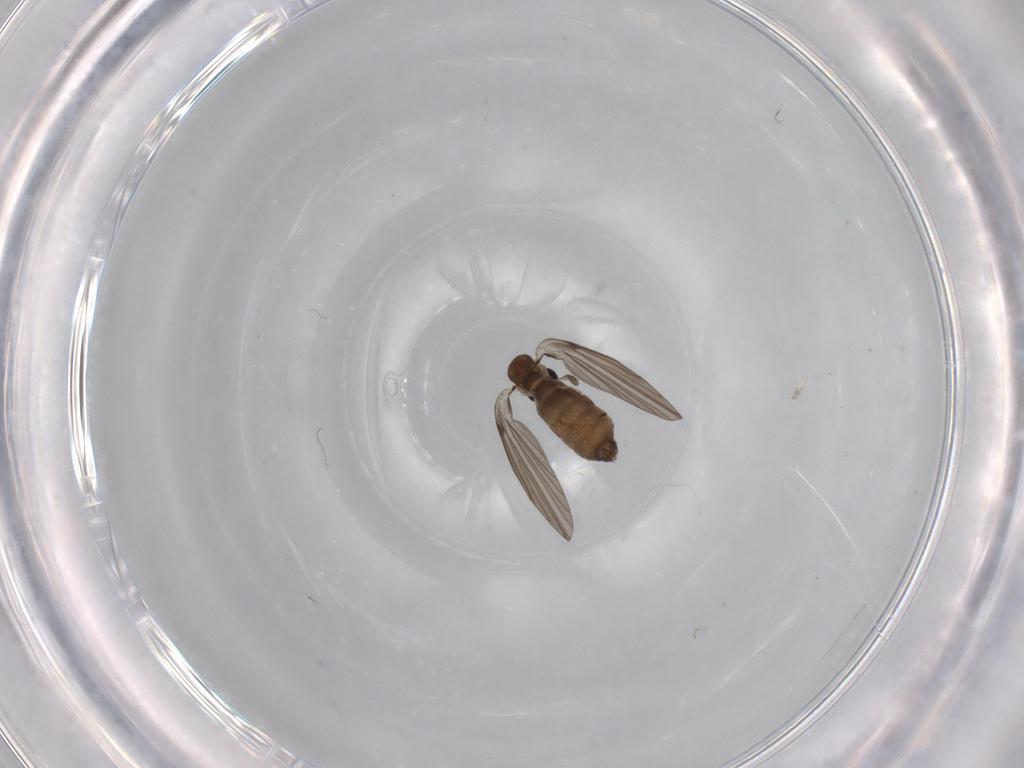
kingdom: Animalia
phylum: Arthropoda
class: Insecta
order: Diptera
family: Psychodidae
